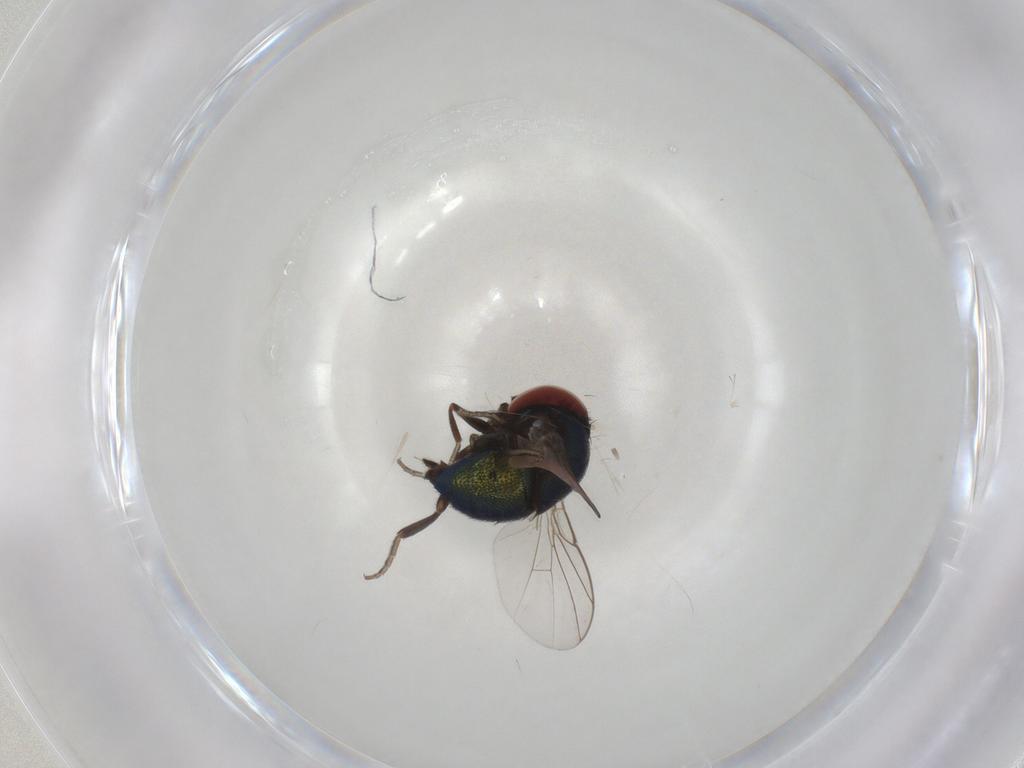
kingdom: Animalia
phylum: Arthropoda
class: Insecta
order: Diptera
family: Cryptochetidae
